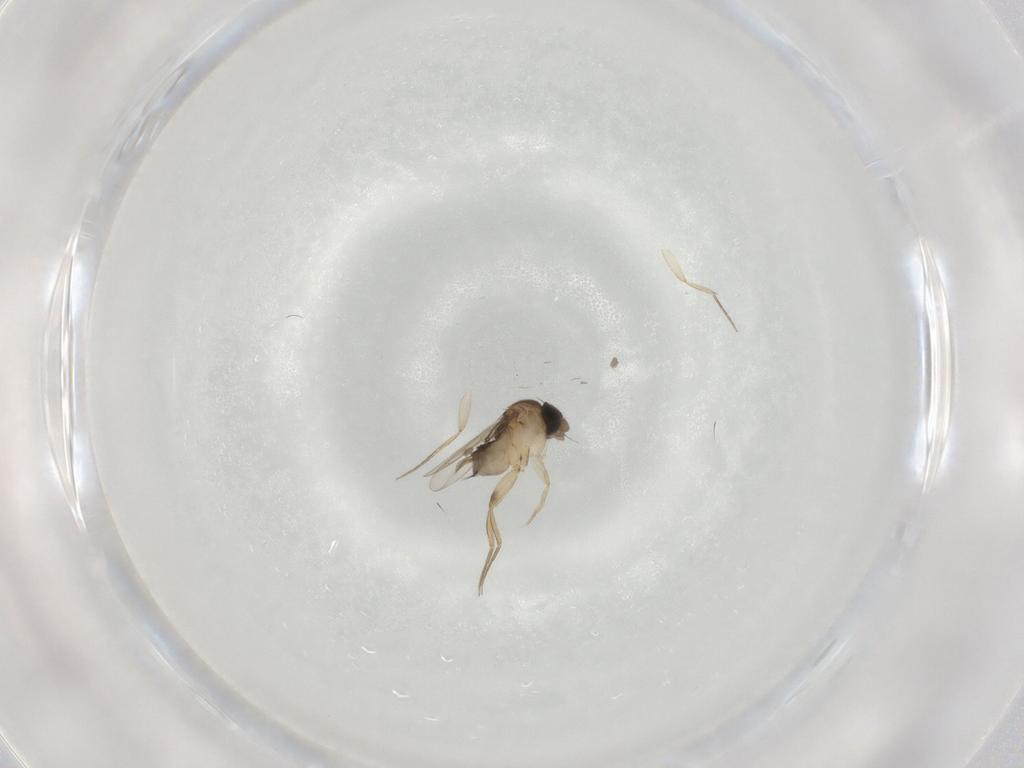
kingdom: Animalia
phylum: Arthropoda
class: Insecta
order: Diptera
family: Phoridae
